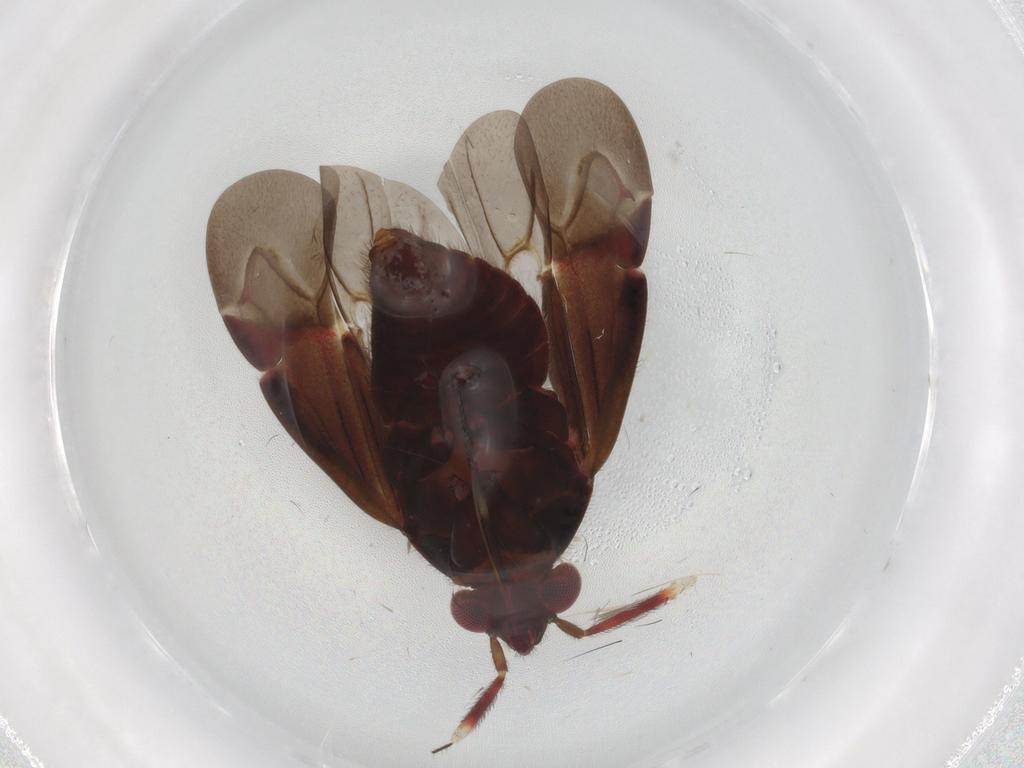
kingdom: Animalia
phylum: Arthropoda
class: Insecta
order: Hemiptera
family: Miridae
